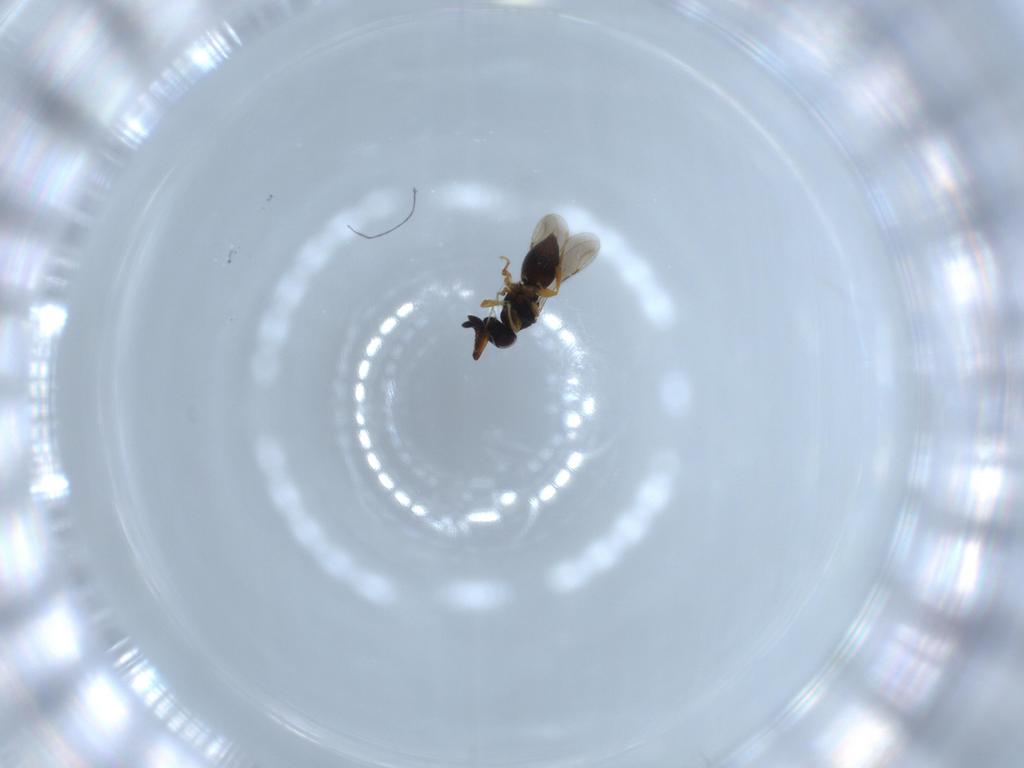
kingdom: Animalia
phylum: Arthropoda
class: Insecta
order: Hymenoptera
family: Ceraphronidae
